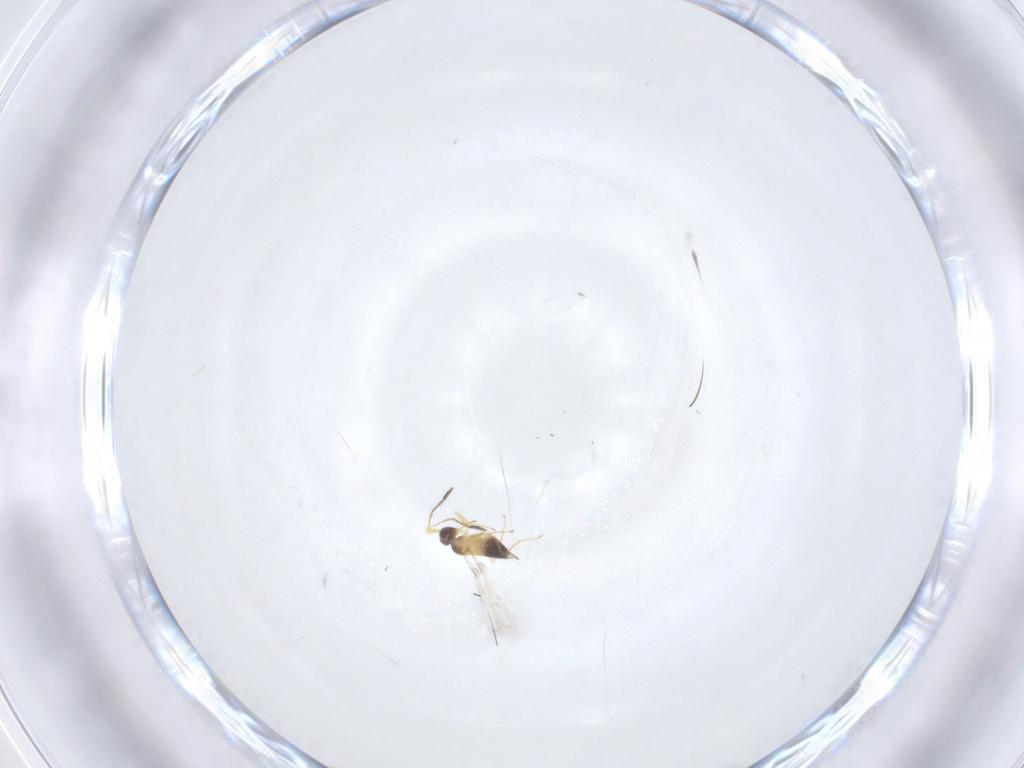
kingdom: Animalia
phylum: Arthropoda
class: Insecta
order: Hymenoptera
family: Mymaridae
